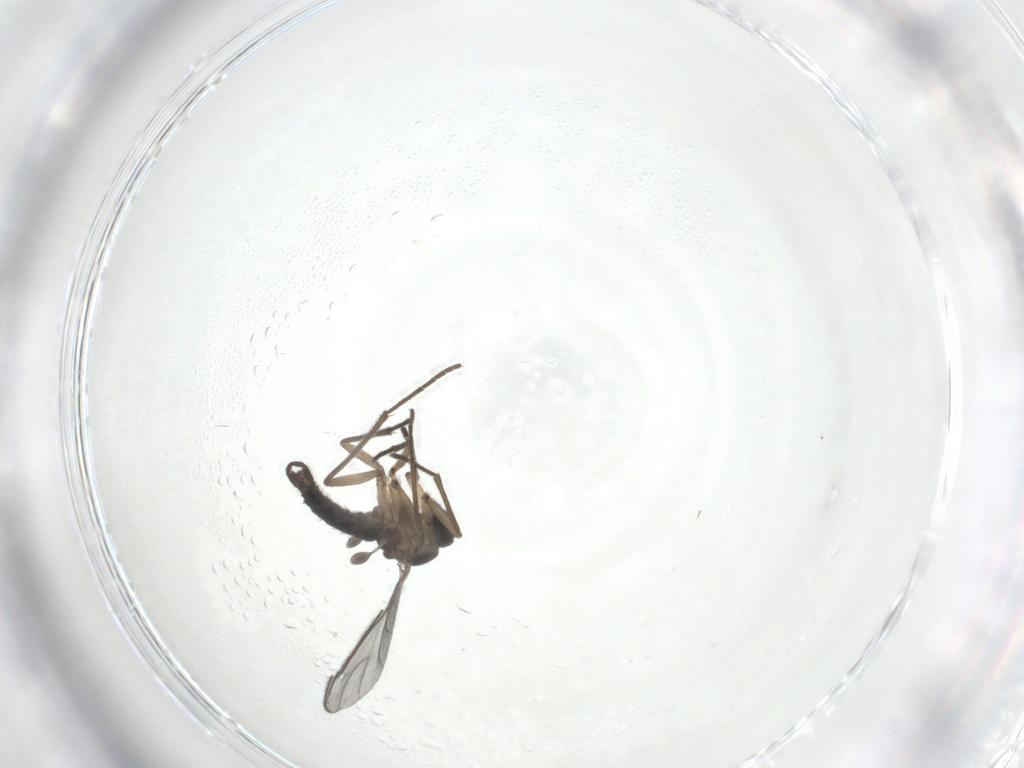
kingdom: Animalia
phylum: Arthropoda
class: Insecta
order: Diptera
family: Sciaridae
